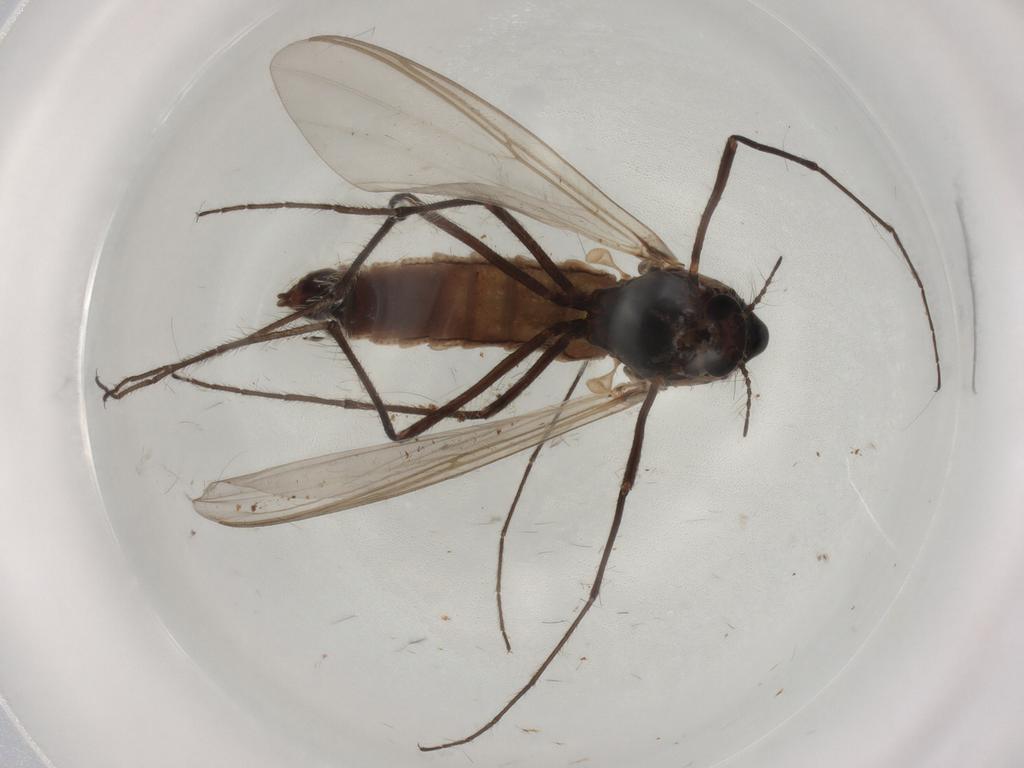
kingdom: Animalia
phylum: Arthropoda
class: Insecta
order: Diptera
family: Chironomidae
